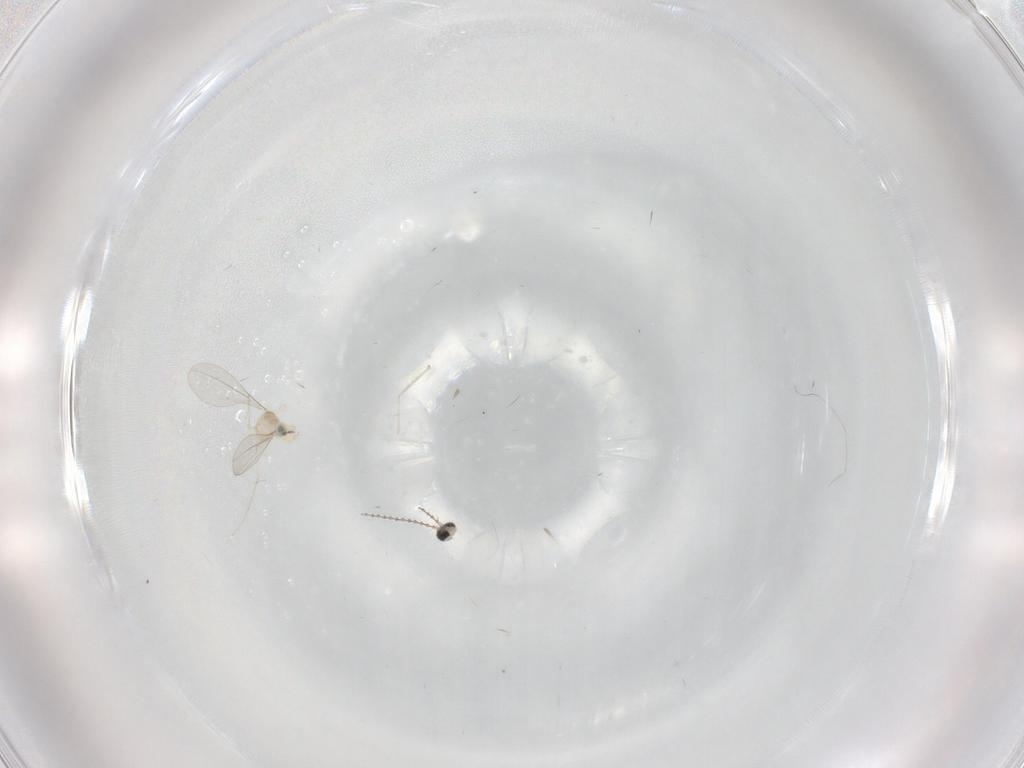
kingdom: Animalia
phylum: Arthropoda
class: Insecta
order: Diptera
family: Cecidomyiidae
